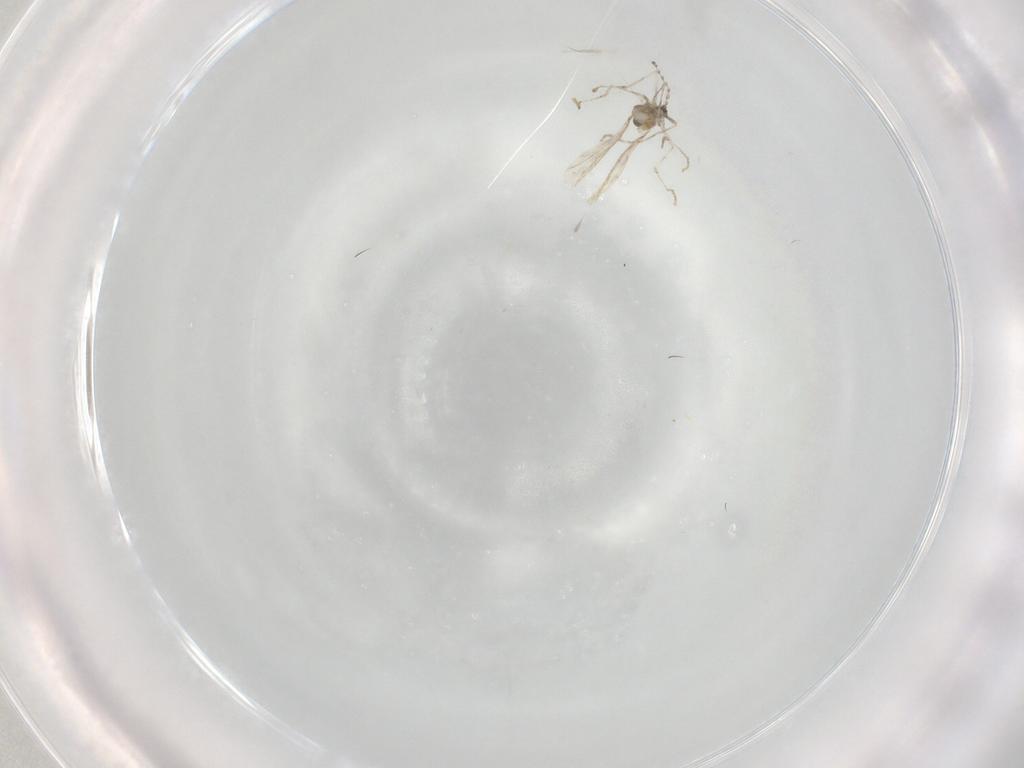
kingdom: Animalia
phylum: Arthropoda
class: Insecta
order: Diptera
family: Cecidomyiidae
